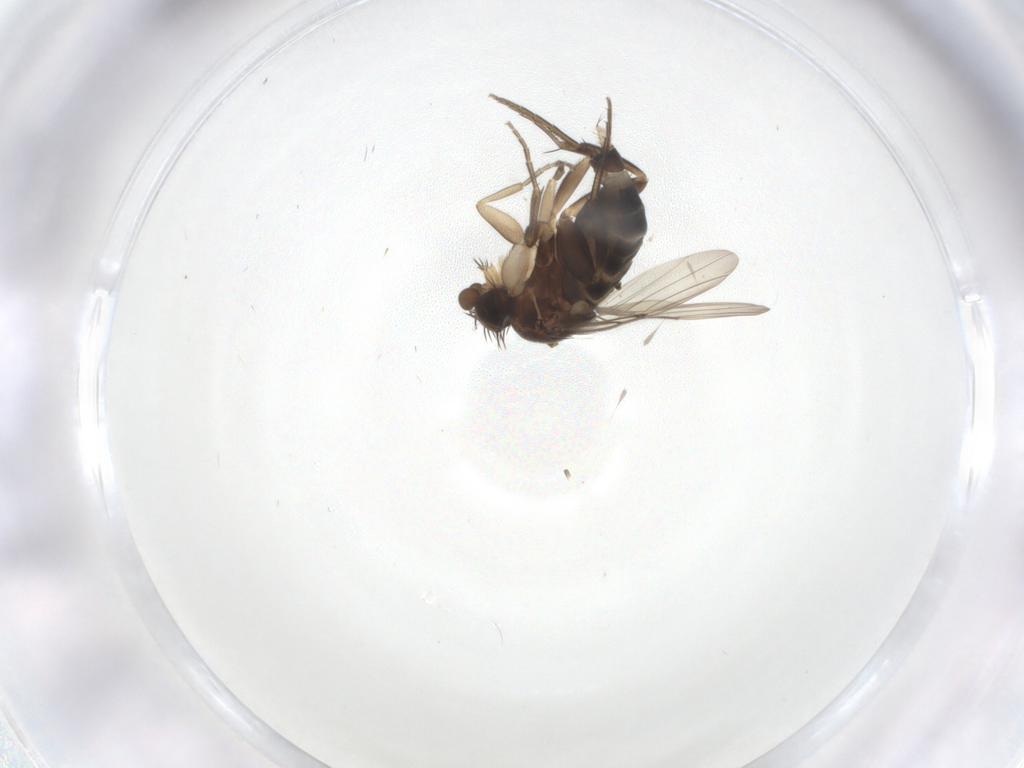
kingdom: Animalia
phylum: Arthropoda
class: Insecta
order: Diptera
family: Phoridae
